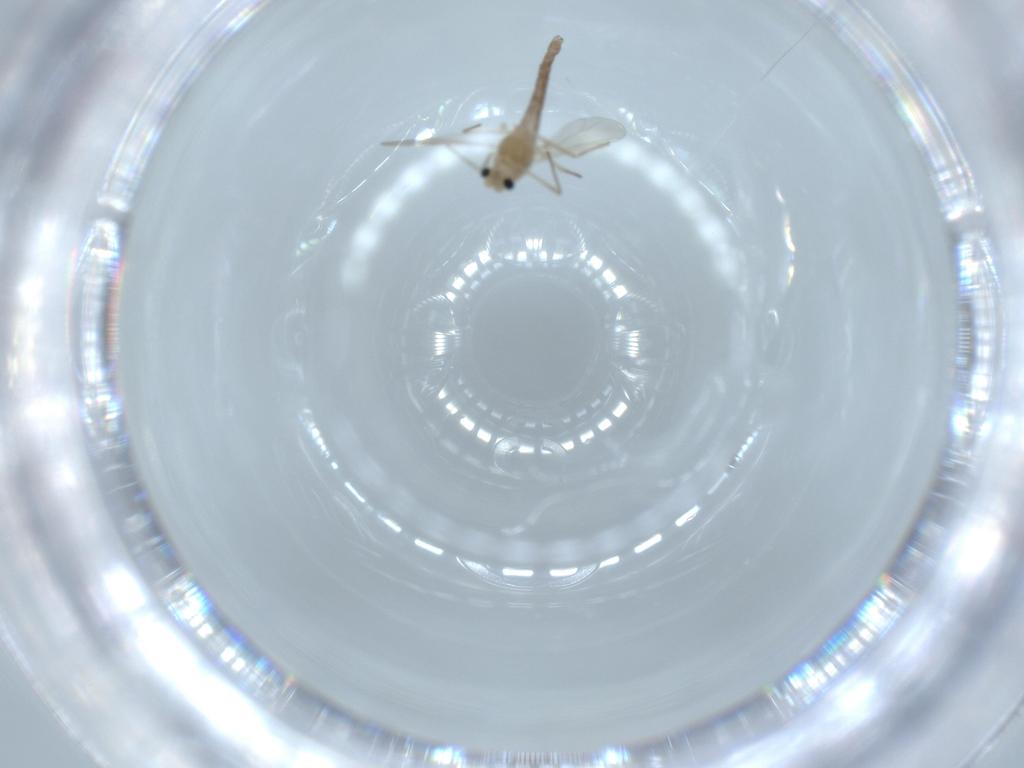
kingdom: Animalia
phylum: Arthropoda
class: Insecta
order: Diptera
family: Chironomidae
